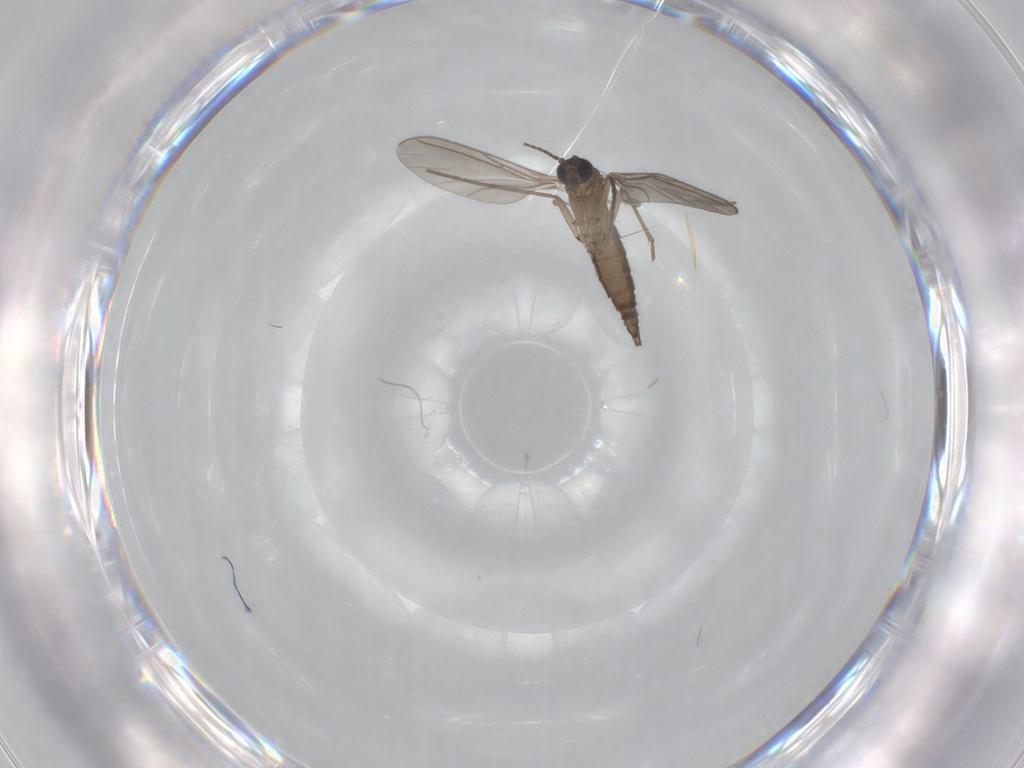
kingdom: Animalia
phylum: Arthropoda
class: Insecta
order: Diptera
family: Sciaridae
